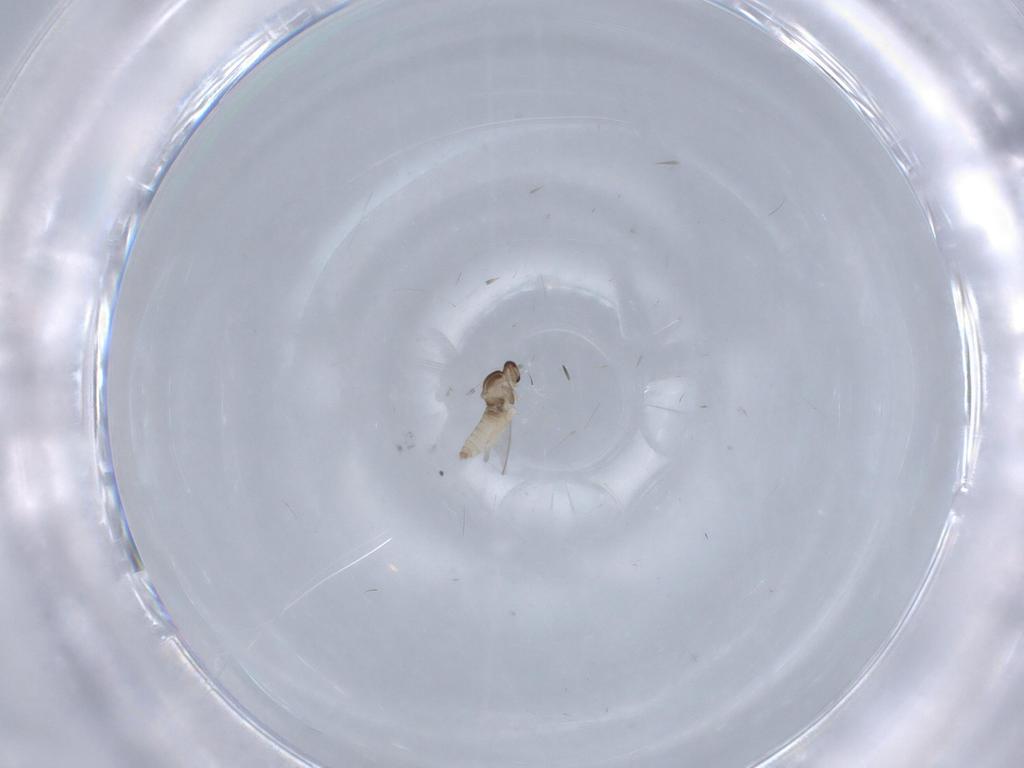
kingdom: Animalia
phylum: Arthropoda
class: Insecta
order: Diptera
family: Cecidomyiidae
